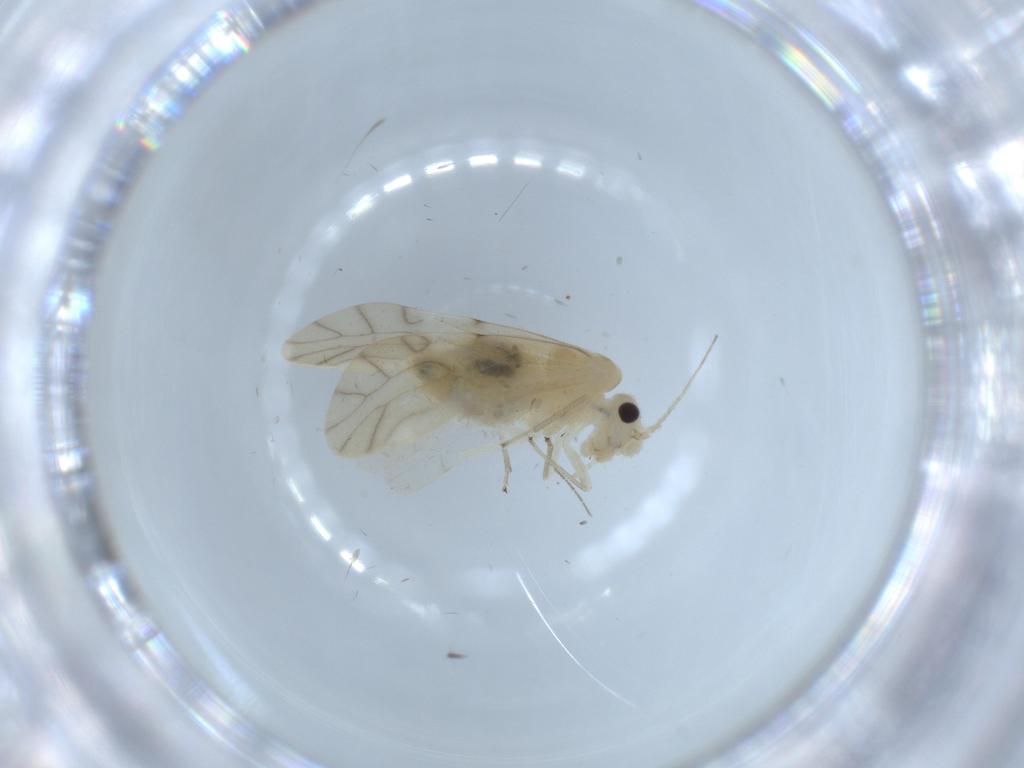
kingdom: Animalia
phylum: Arthropoda
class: Insecta
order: Psocodea
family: Caeciliusidae
